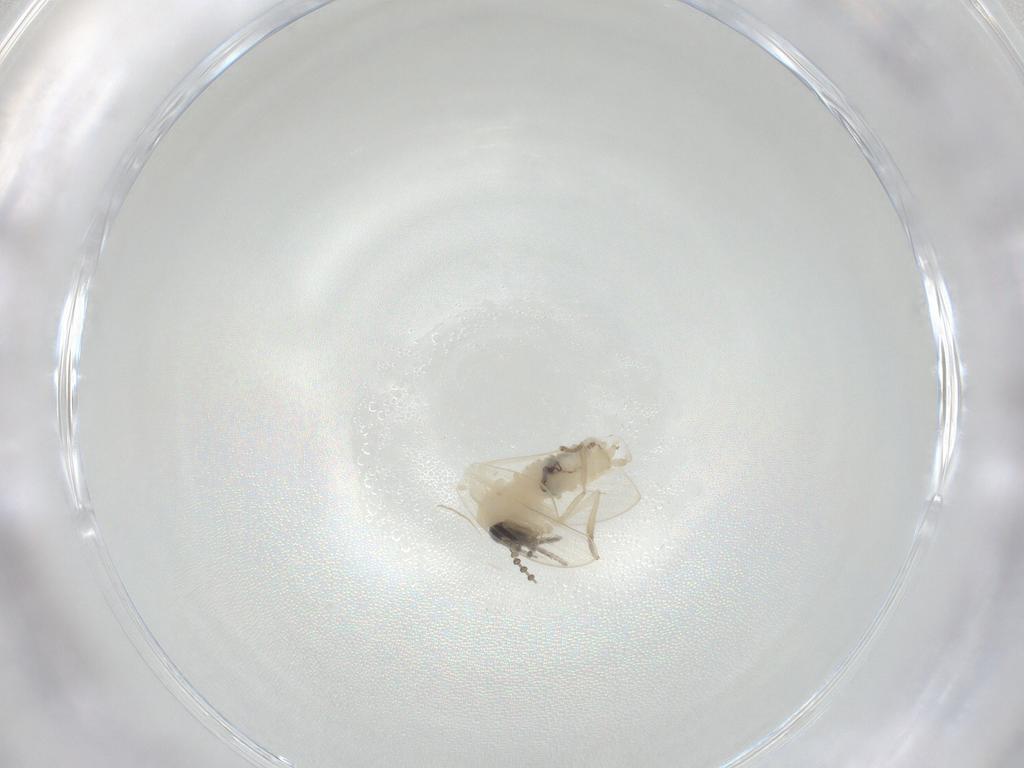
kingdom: Animalia
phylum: Arthropoda
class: Insecta
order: Diptera
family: Psychodidae
